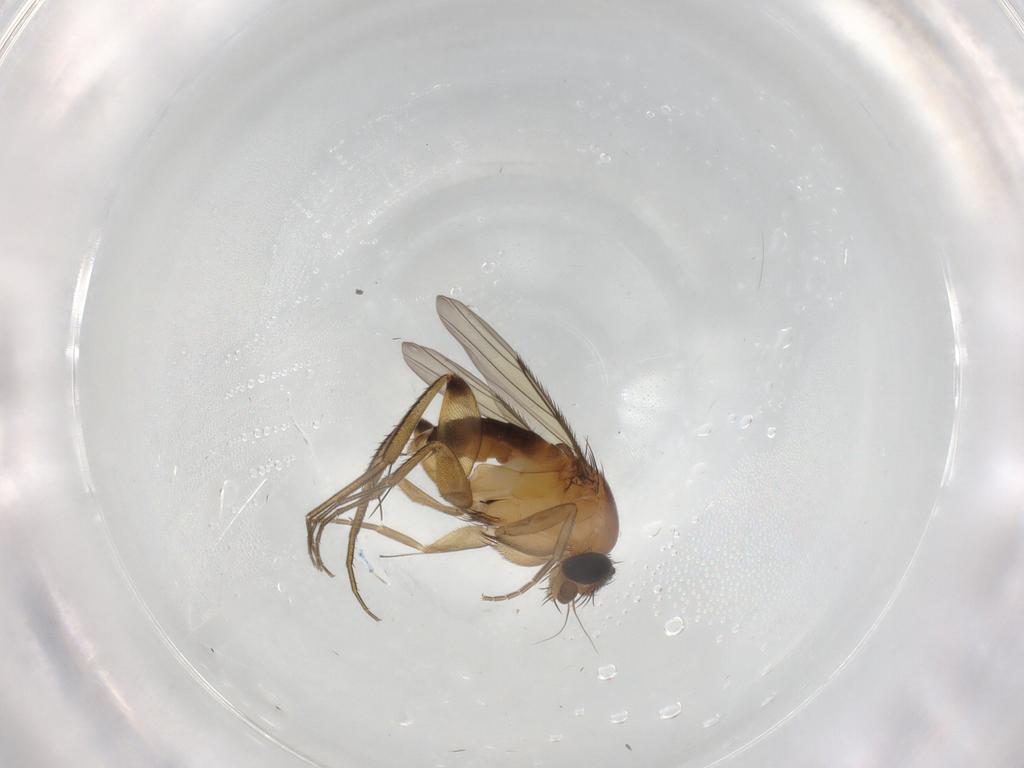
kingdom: Animalia
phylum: Arthropoda
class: Insecta
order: Diptera
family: Phoridae
